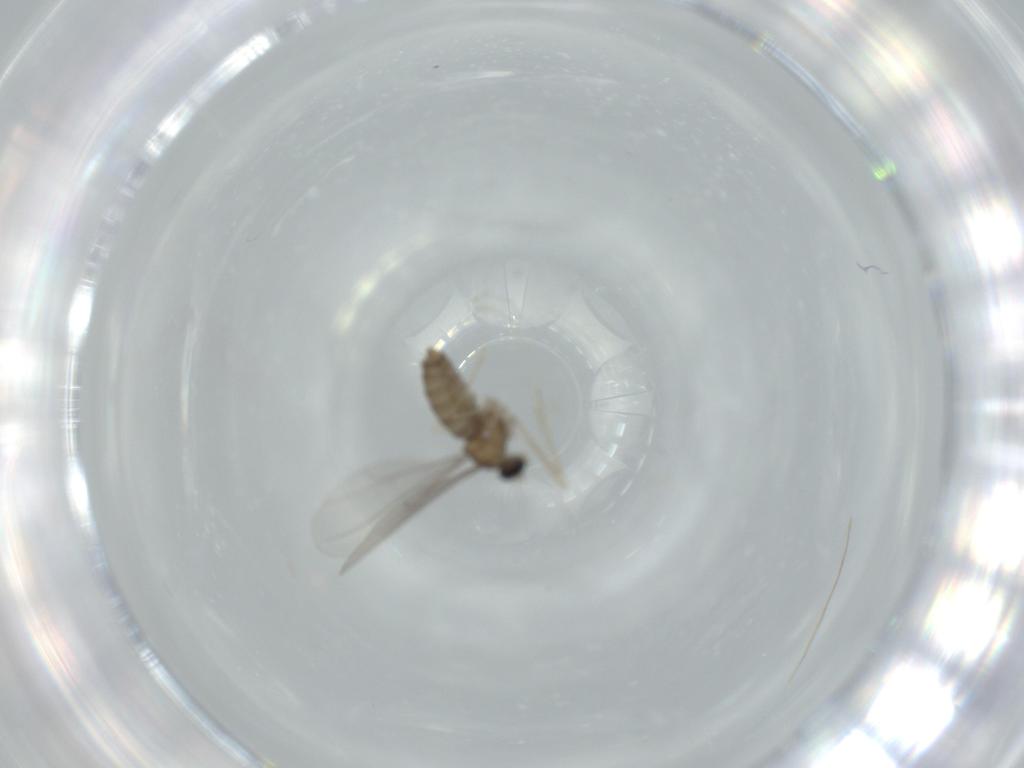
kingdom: Animalia
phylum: Arthropoda
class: Insecta
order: Diptera
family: Cecidomyiidae
